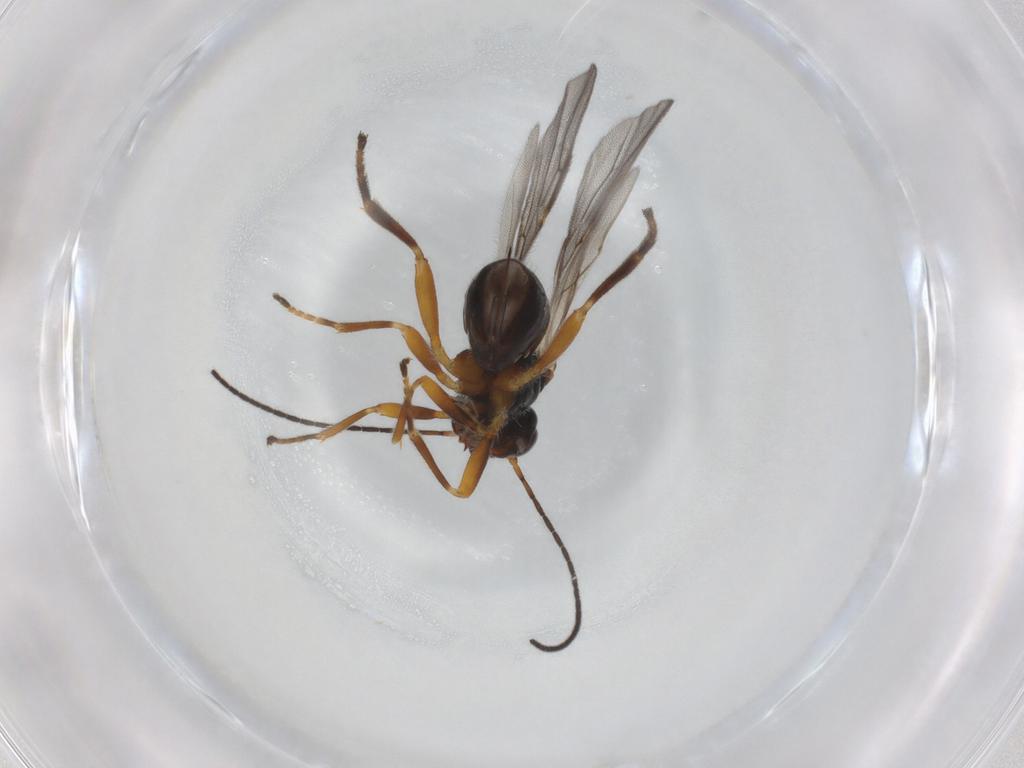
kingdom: Animalia
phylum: Arthropoda
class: Insecta
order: Hymenoptera
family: Braconidae
